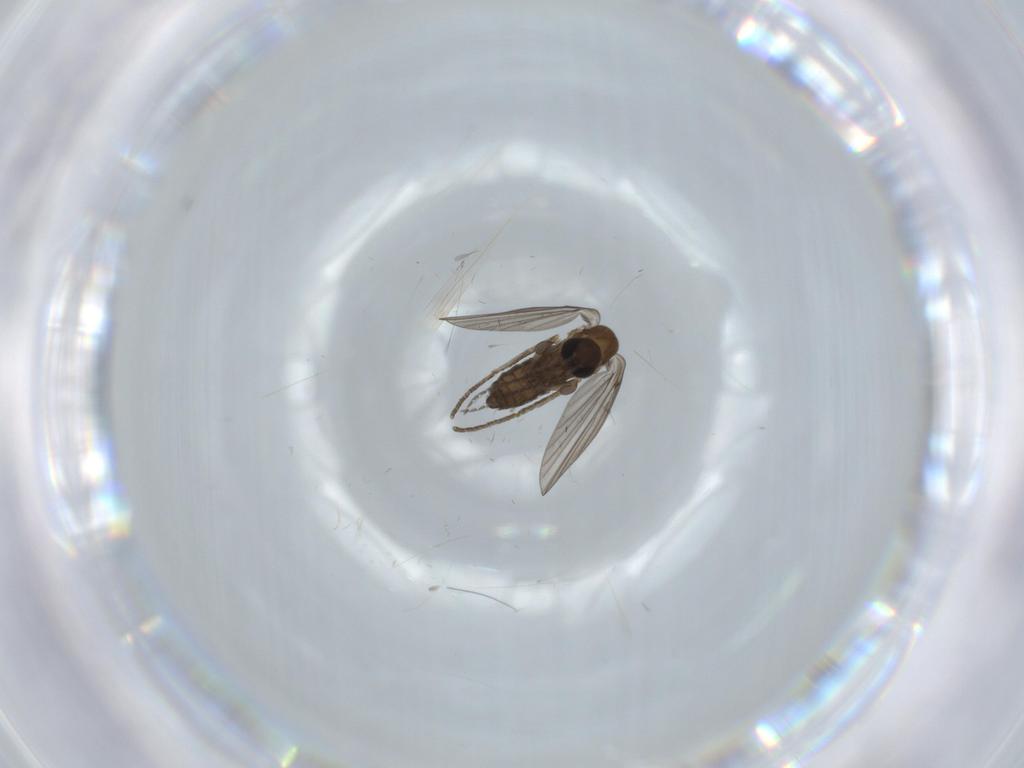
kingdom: Animalia
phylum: Arthropoda
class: Insecta
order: Diptera
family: Psychodidae
